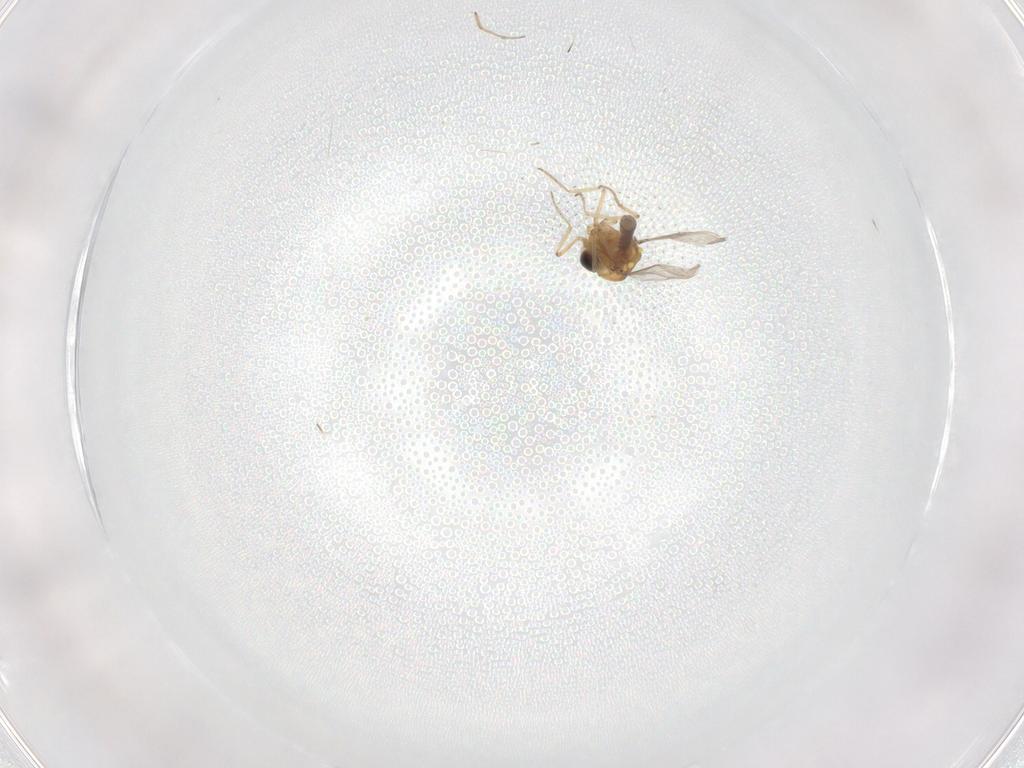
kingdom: Animalia
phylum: Arthropoda
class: Insecta
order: Diptera
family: Chironomidae
